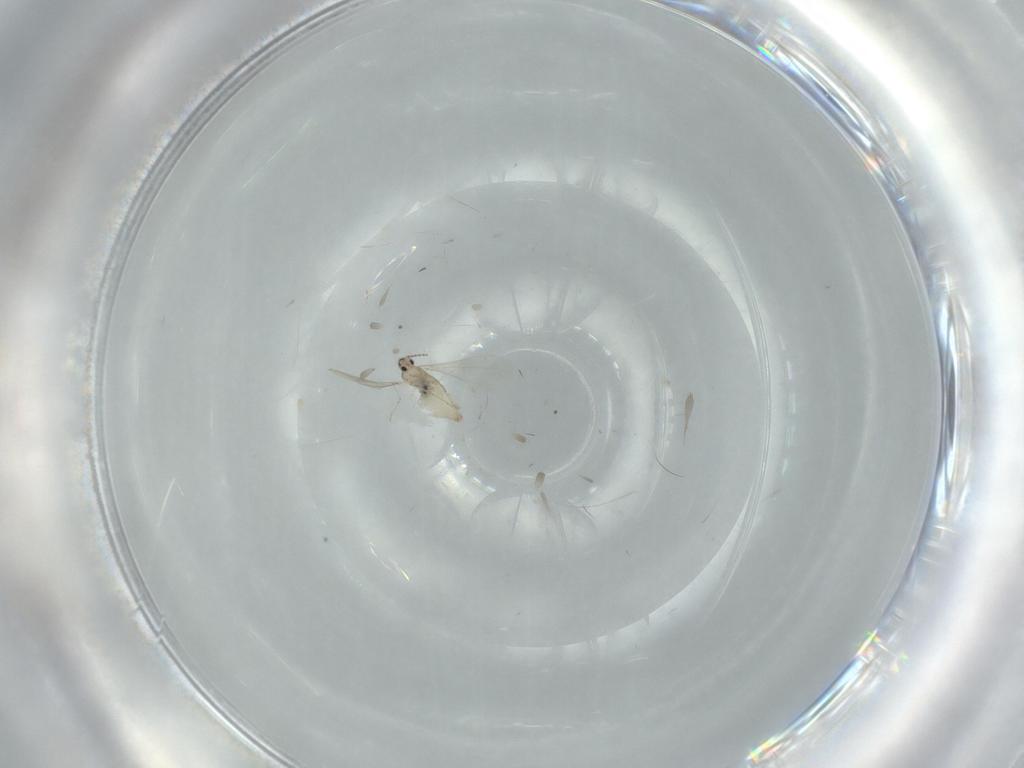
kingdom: Animalia
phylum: Arthropoda
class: Insecta
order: Diptera
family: Cecidomyiidae
